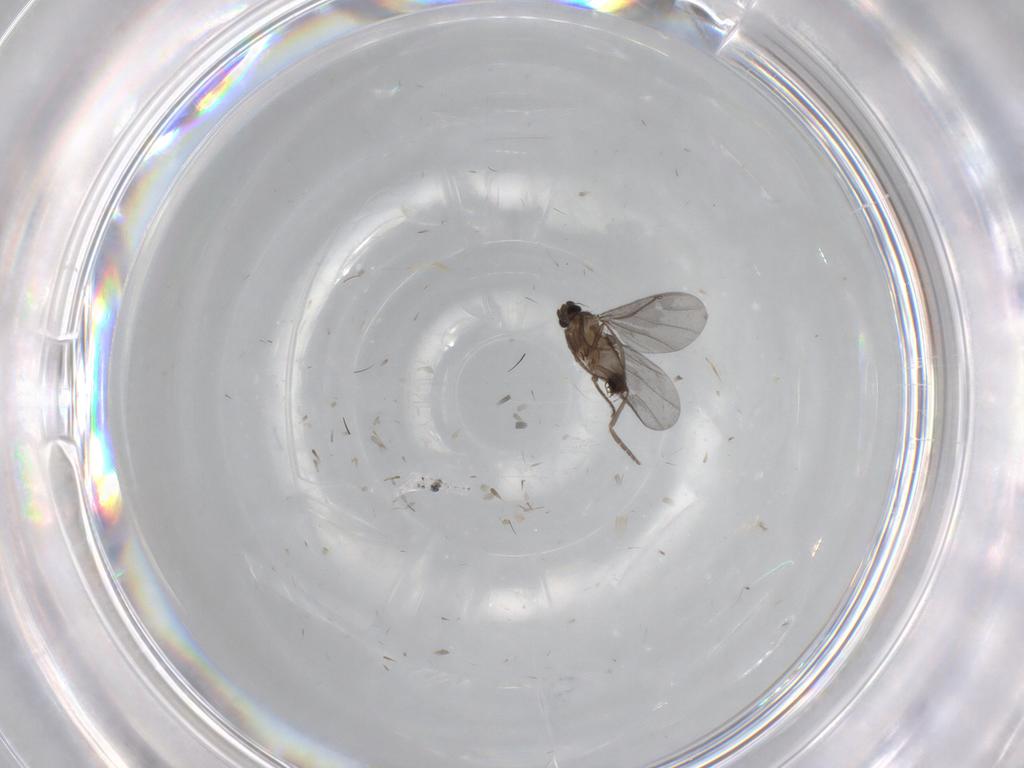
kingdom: Animalia
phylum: Arthropoda
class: Insecta
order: Diptera
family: Phoridae
